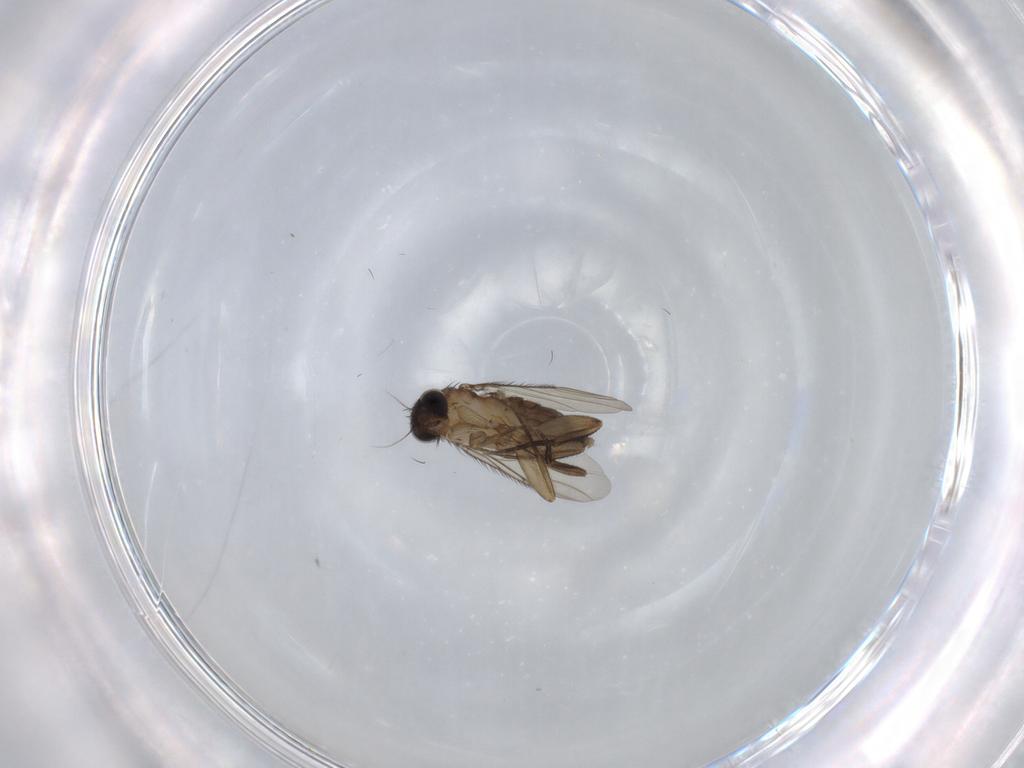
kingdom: Animalia
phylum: Arthropoda
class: Insecta
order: Diptera
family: Phoridae
